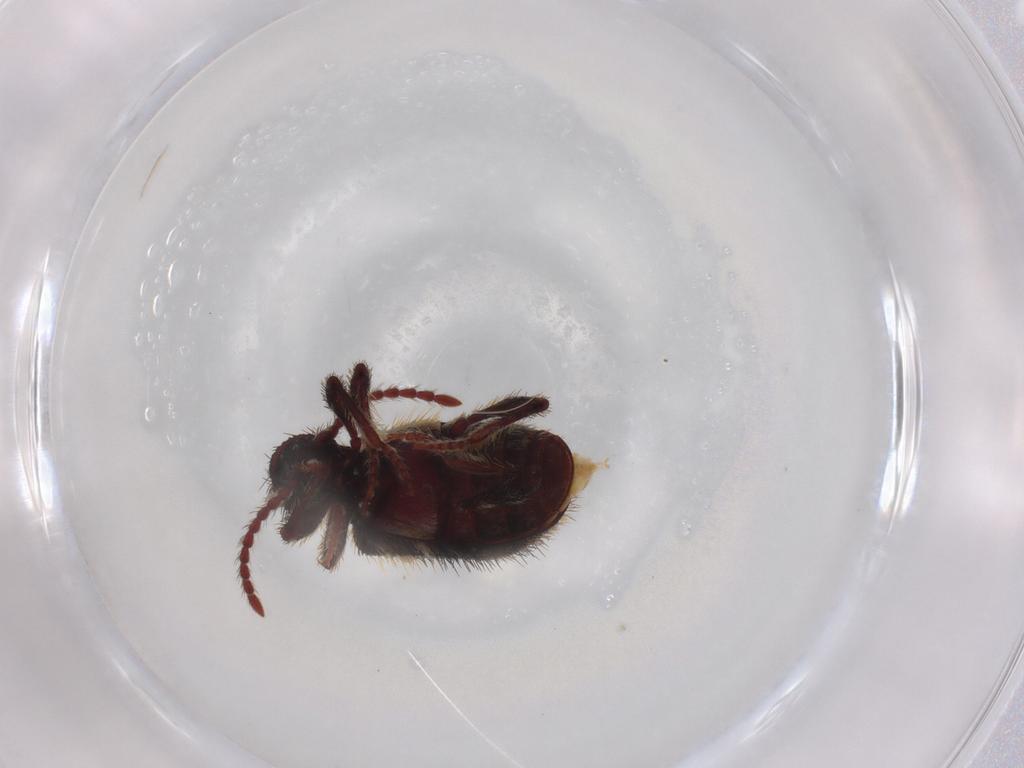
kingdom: Animalia
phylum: Arthropoda
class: Insecta
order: Coleoptera
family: Ptinidae
